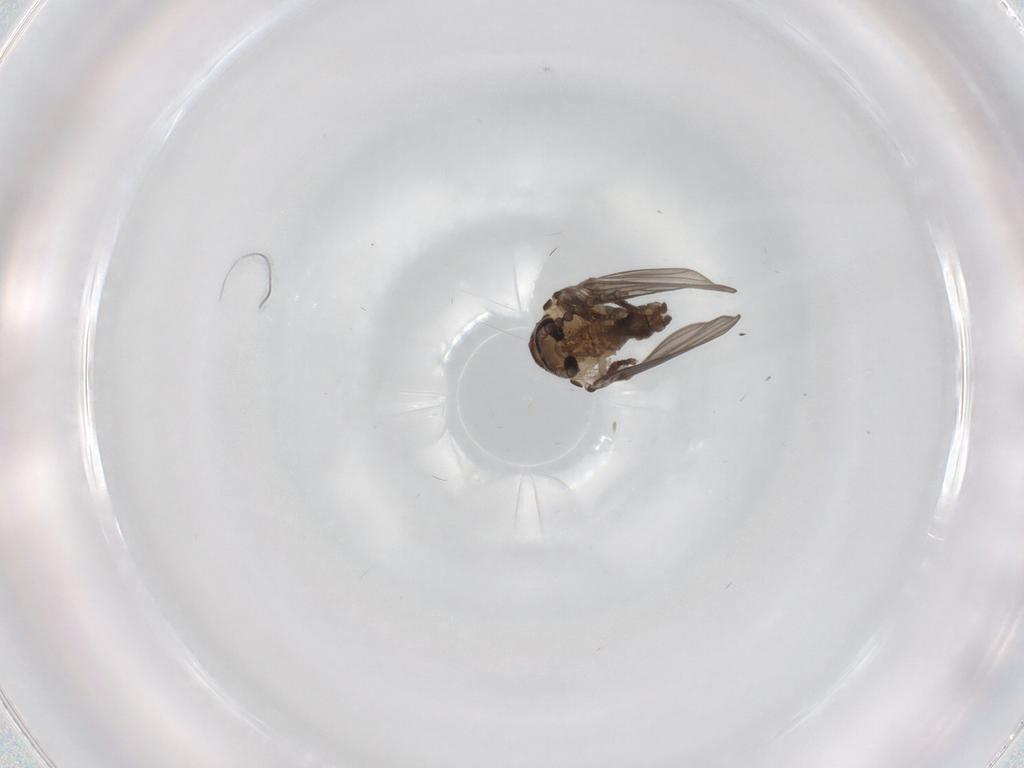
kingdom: Animalia
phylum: Arthropoda
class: Insecta
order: Diptera
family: Psychodidae
